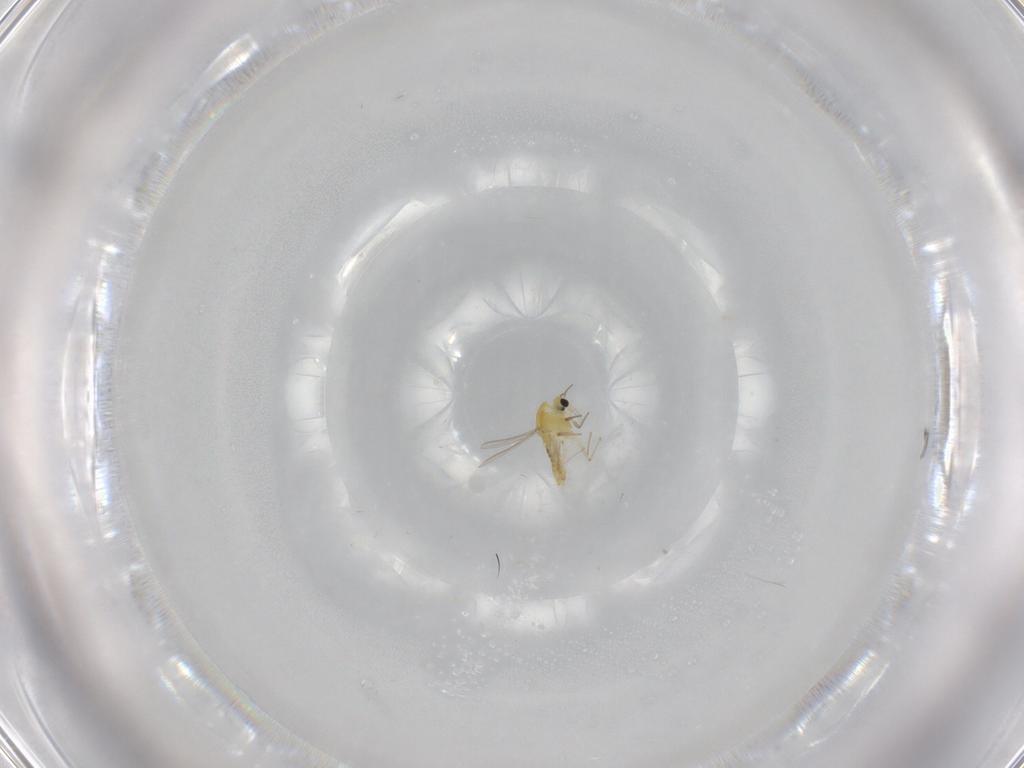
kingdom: Animalia
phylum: Arthropoda
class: Insecta
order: Diptera
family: Chironomidae
